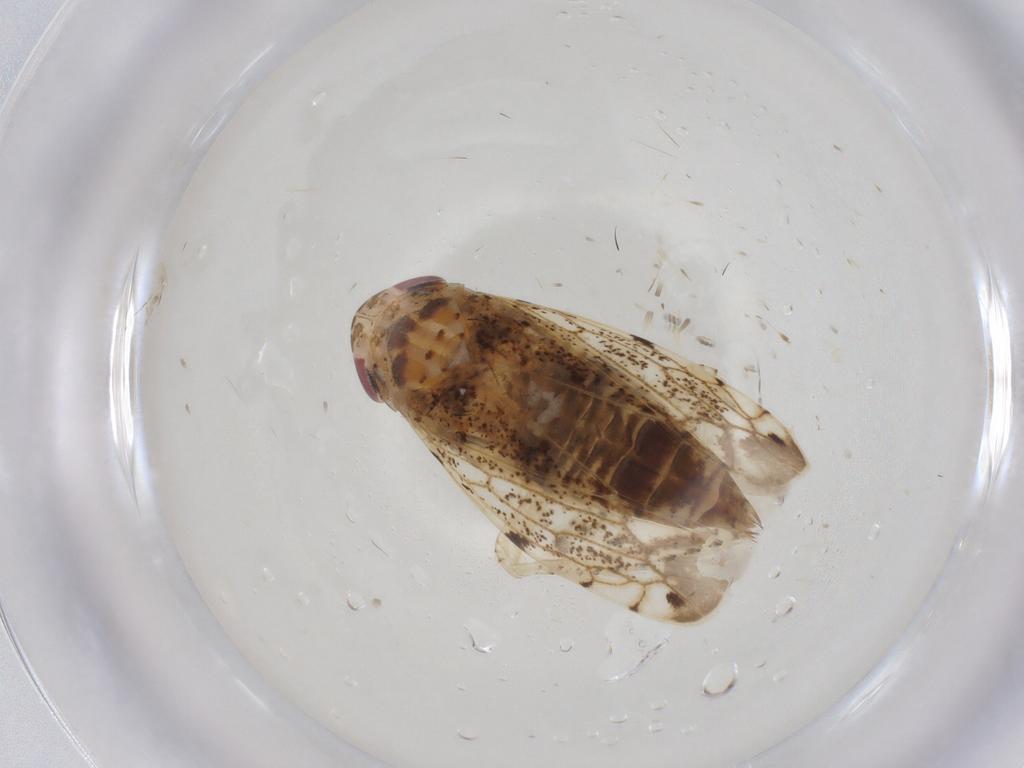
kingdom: Animalia
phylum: Arthropoda
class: Insecta
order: Hemiptera
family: Cicadellidae
